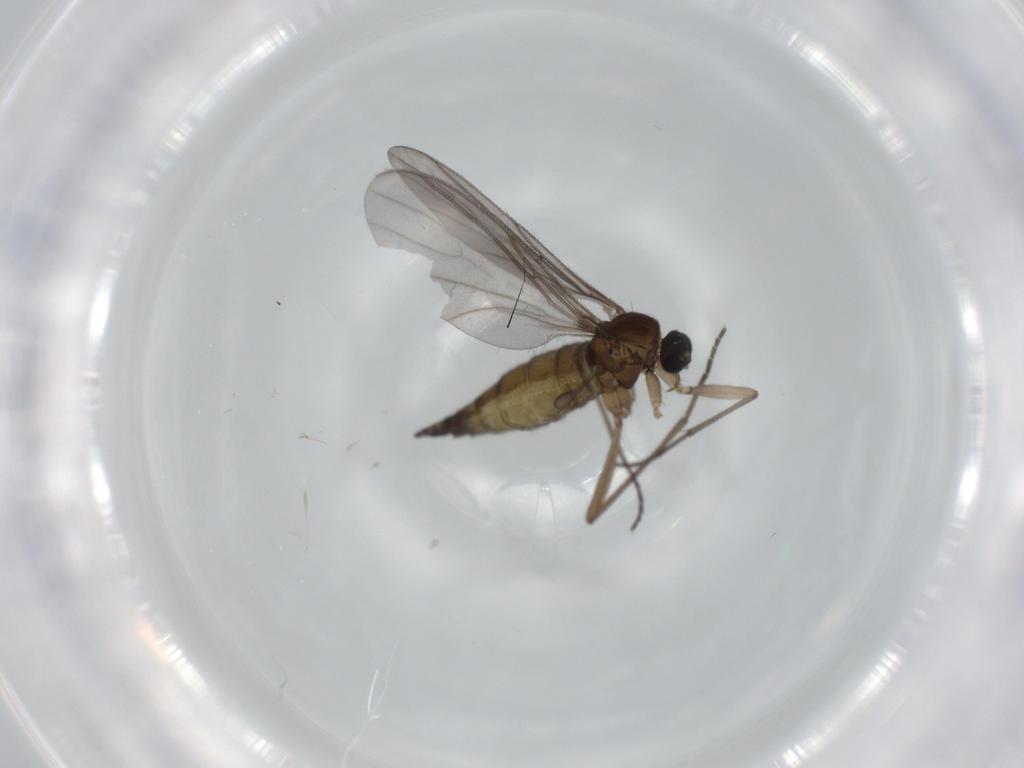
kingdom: Animalia
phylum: Arthropoda
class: Insecta
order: Diptera
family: Sciaridae
